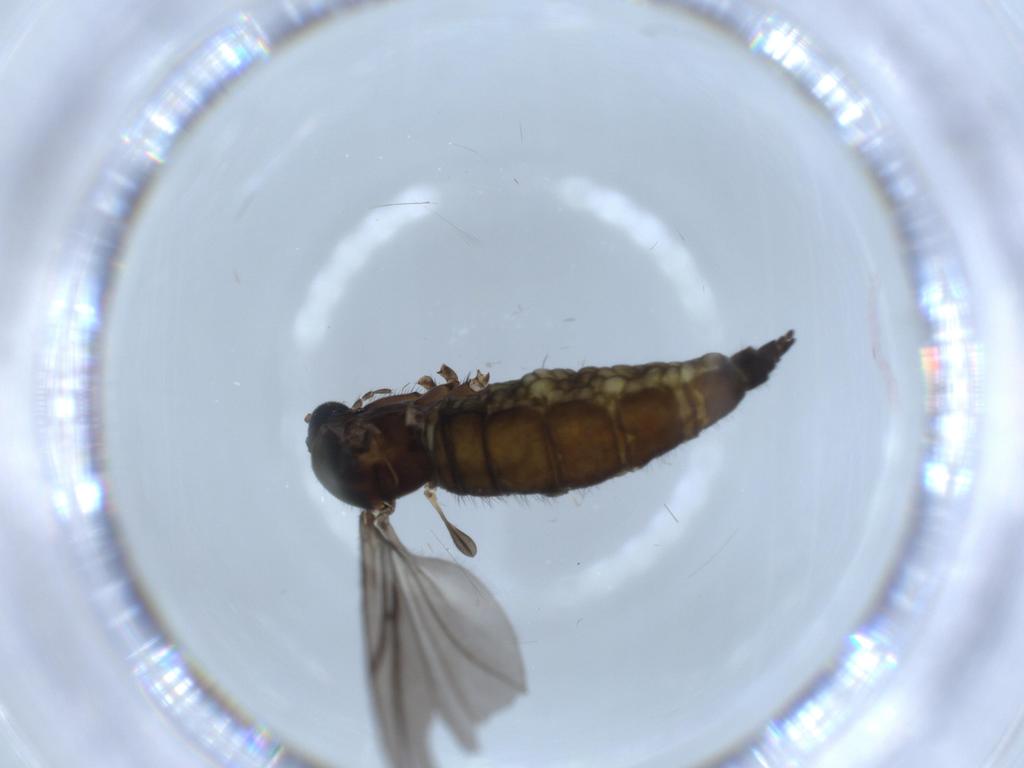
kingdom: Animalia
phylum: Arthropoda
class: Insecta
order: Diptera
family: Sciaridae
